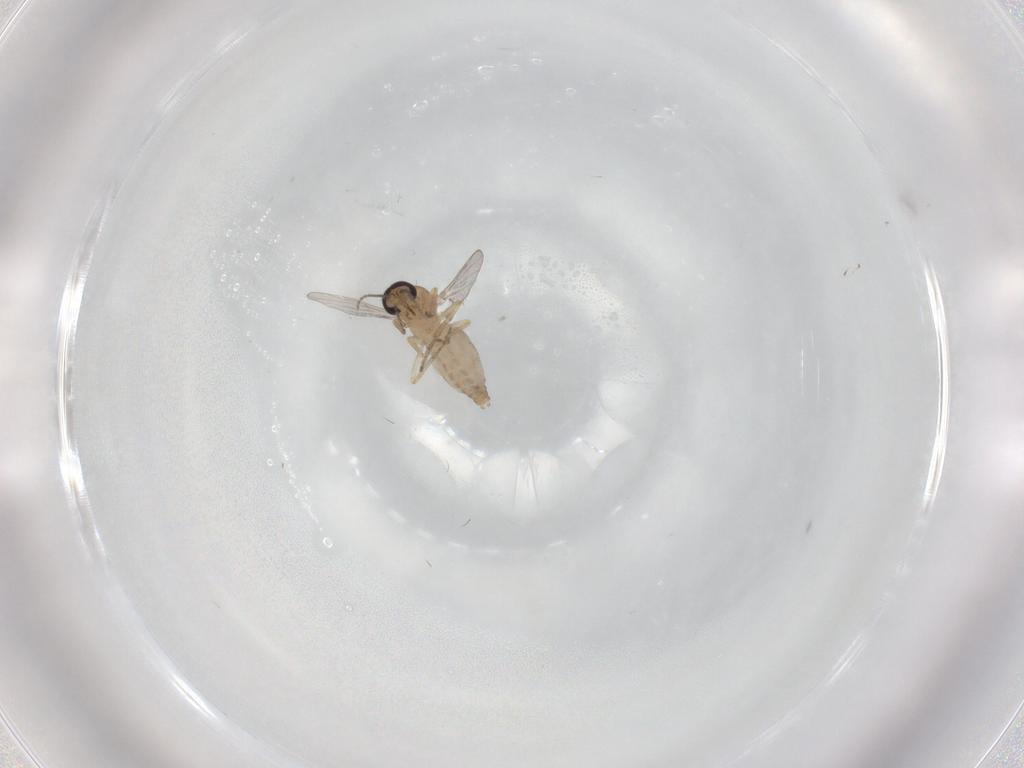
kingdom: Animalia
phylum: Arthropoda
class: Insecta
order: Diptera
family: Ceratopogonidae
